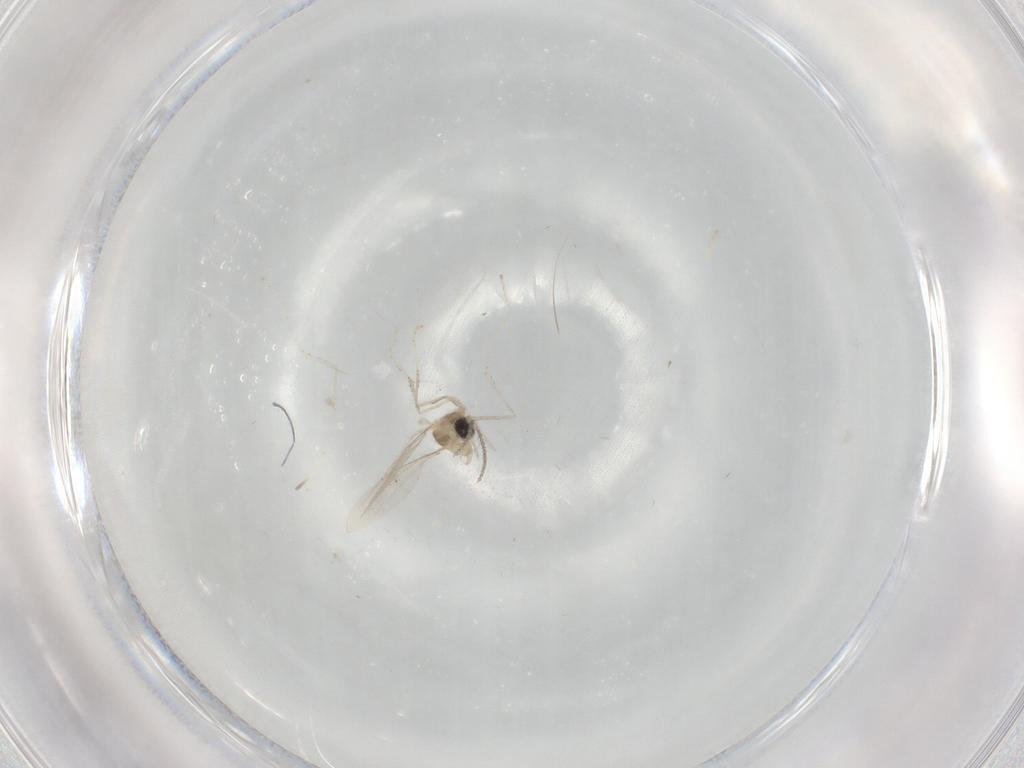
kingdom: Animalia
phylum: Arthropoda
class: Insecta
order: Diptera
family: Cecidomyiidae
